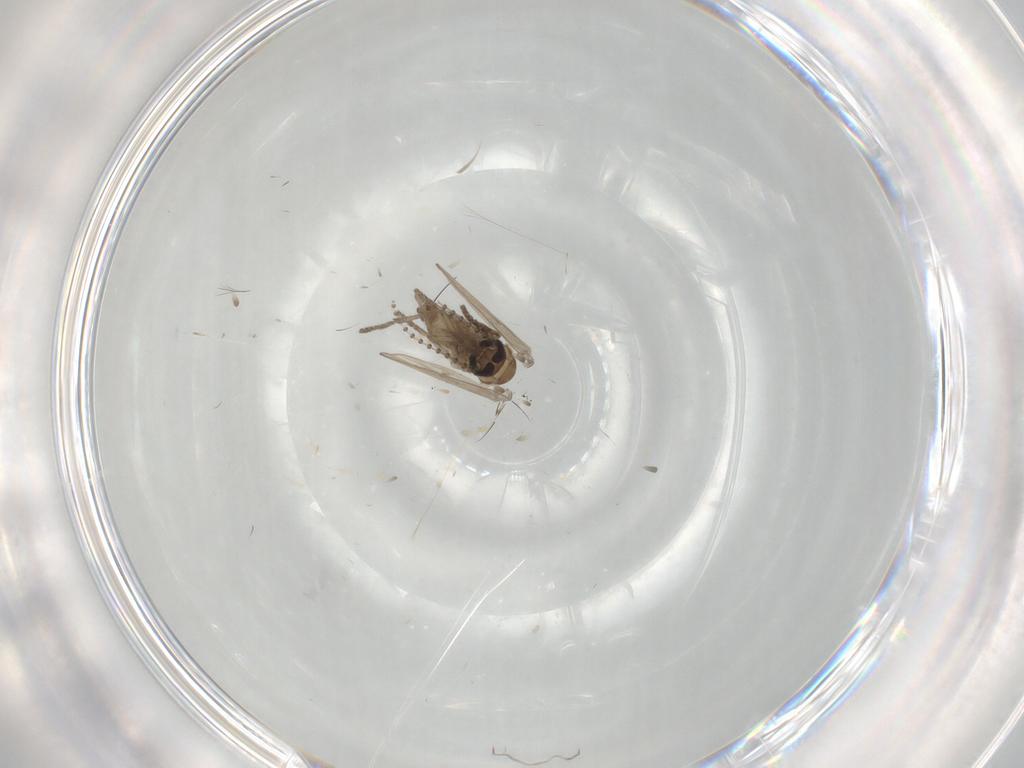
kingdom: Animalia
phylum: Arthropoda
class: Insecta
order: Diptera
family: Psychodidae
